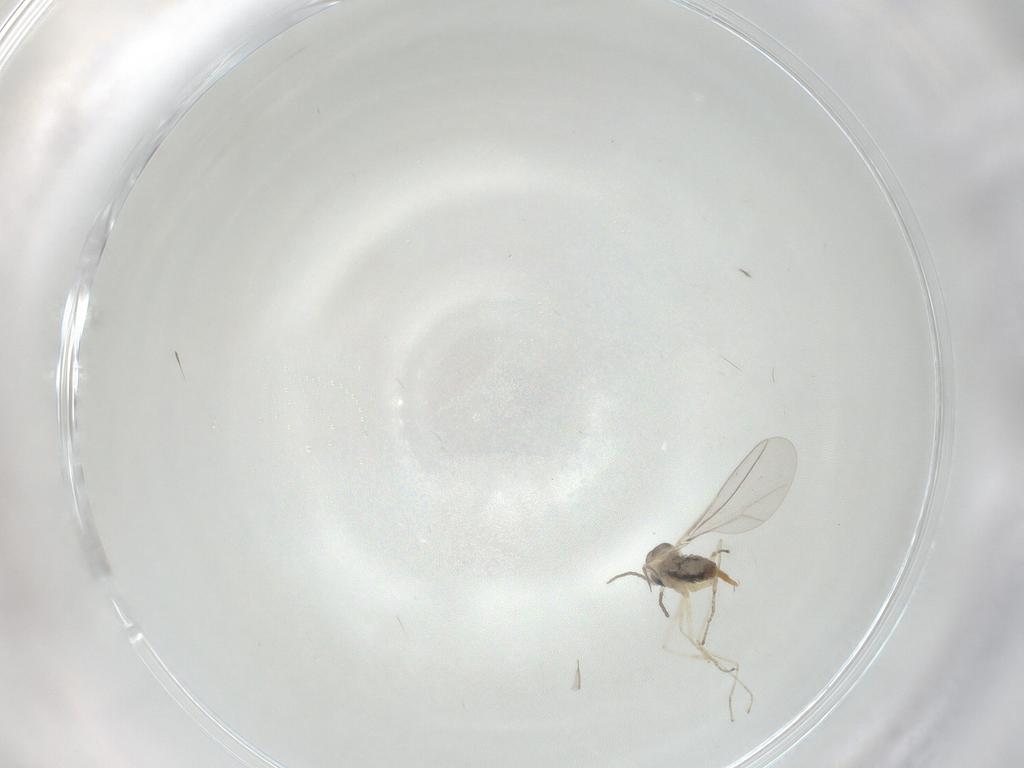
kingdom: Animalia
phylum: Arthropoda
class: Insecta
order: Diptera
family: Cecidomyiidae
